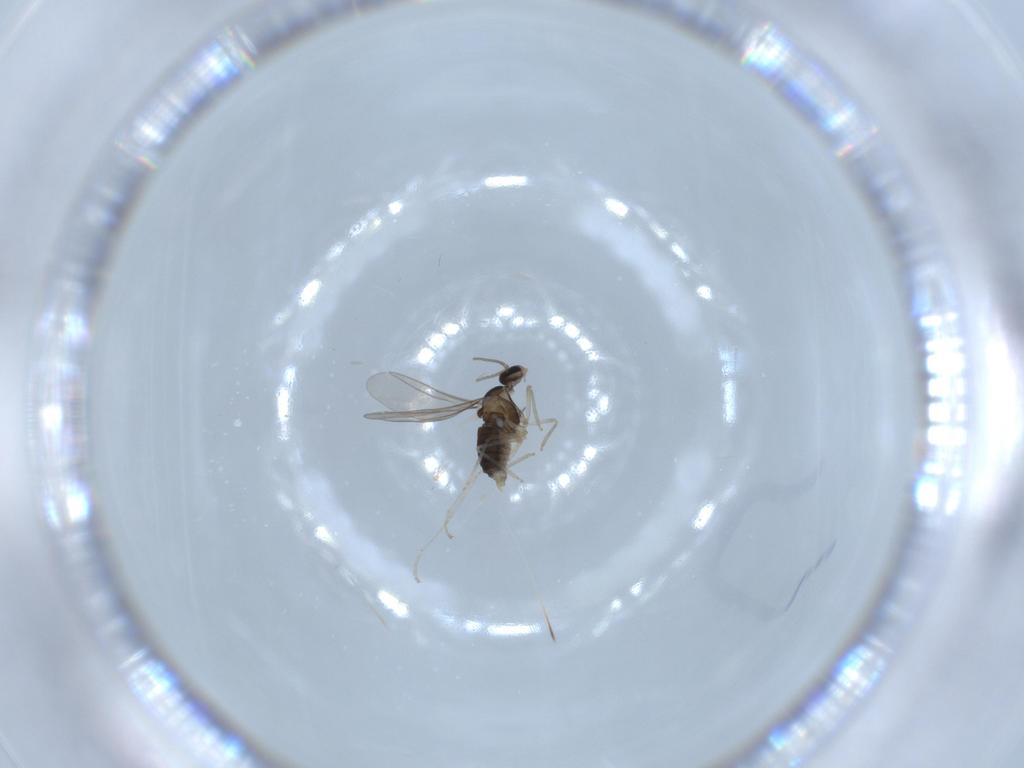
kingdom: Animalia
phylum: Arthropoda
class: Insecta
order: Diptera
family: Cecidomyiidae
